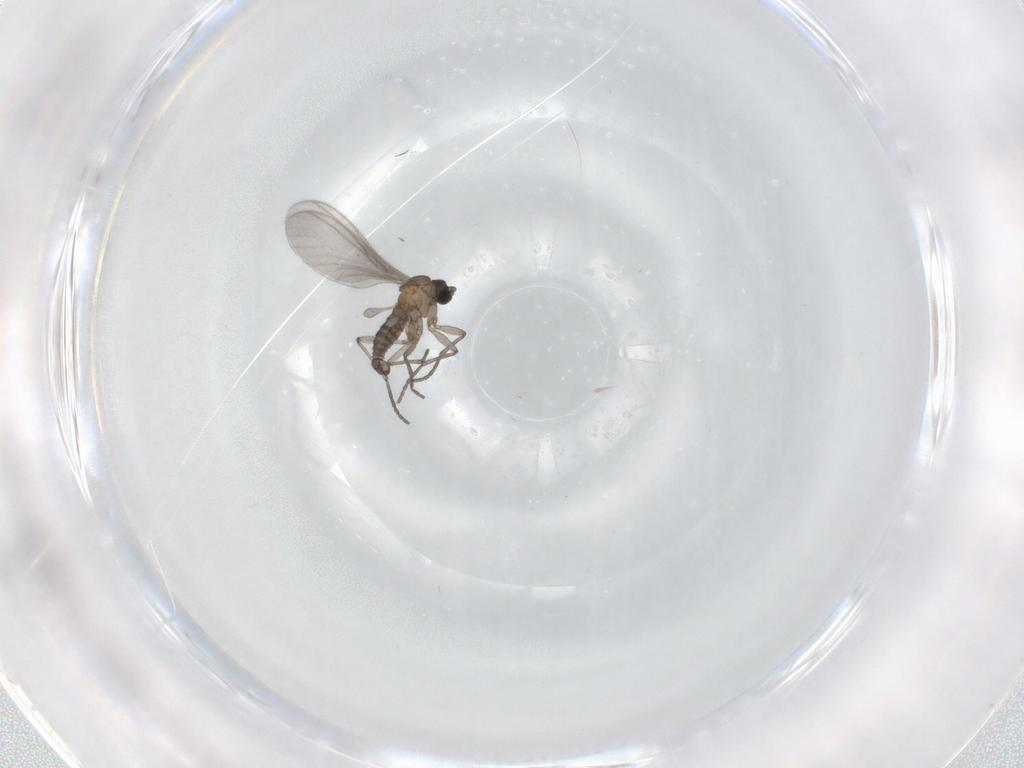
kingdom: Animalia
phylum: Arthropoda
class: Insecta
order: Diptera
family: Sciaridae
